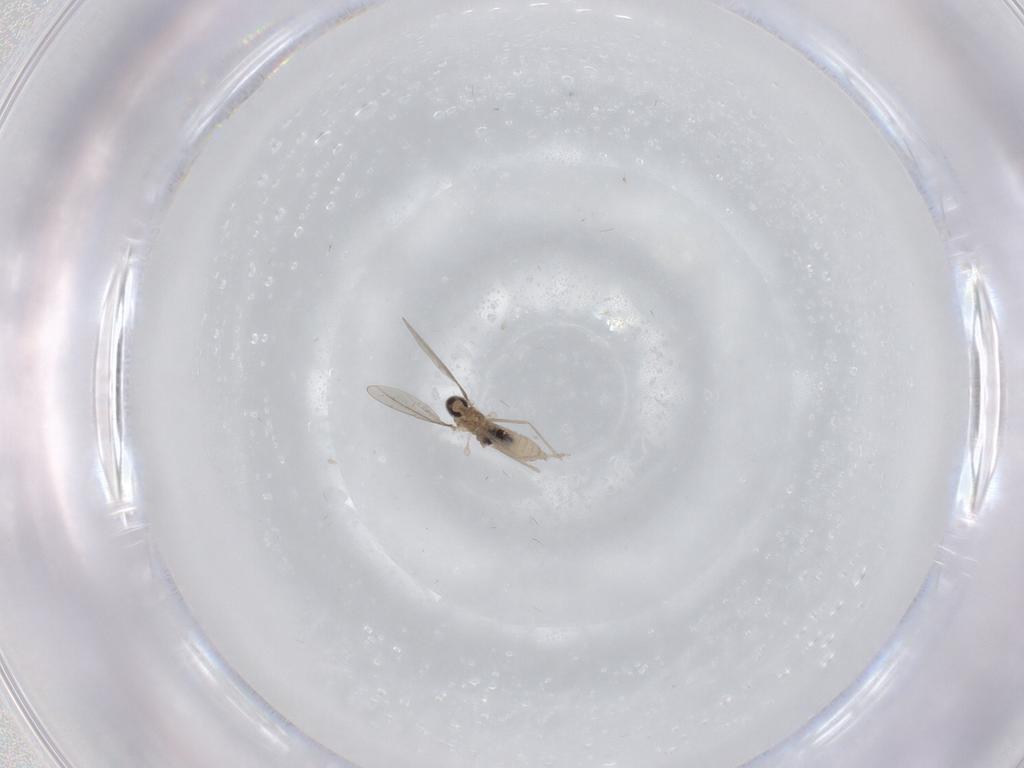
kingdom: Animalia
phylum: Arthropoda
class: Insecta
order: Diptera
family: Cecidomyiidae
